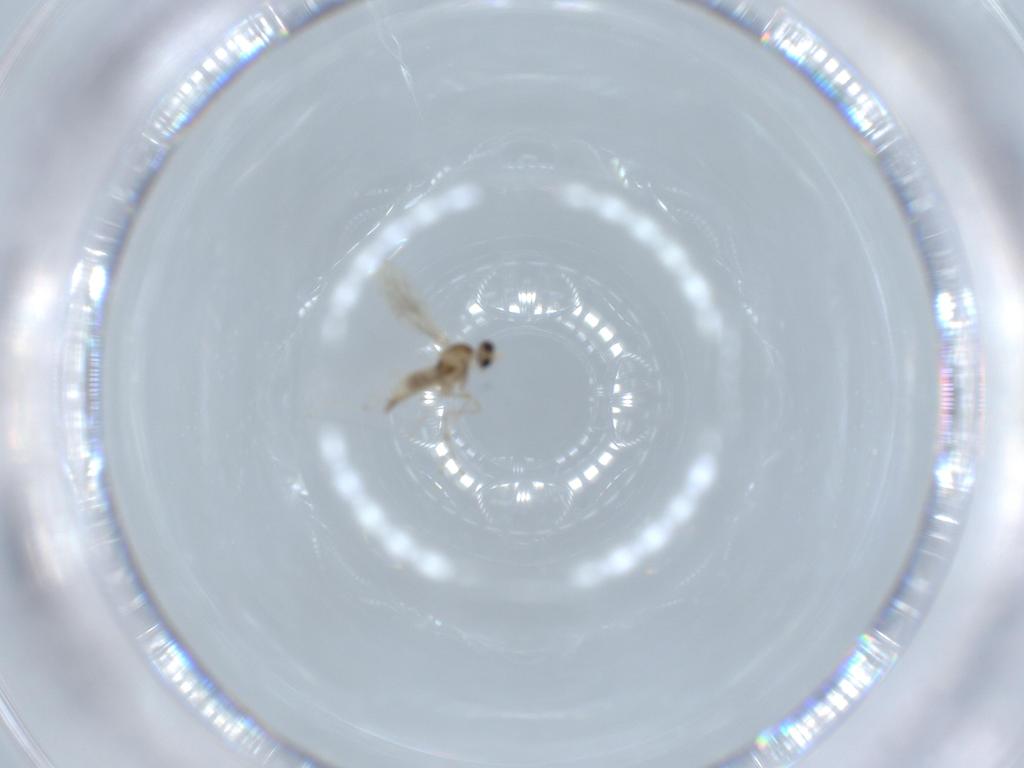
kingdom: Animalia
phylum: Arthropoda
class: Insecta
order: Diptera
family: Cecidomyiidae
